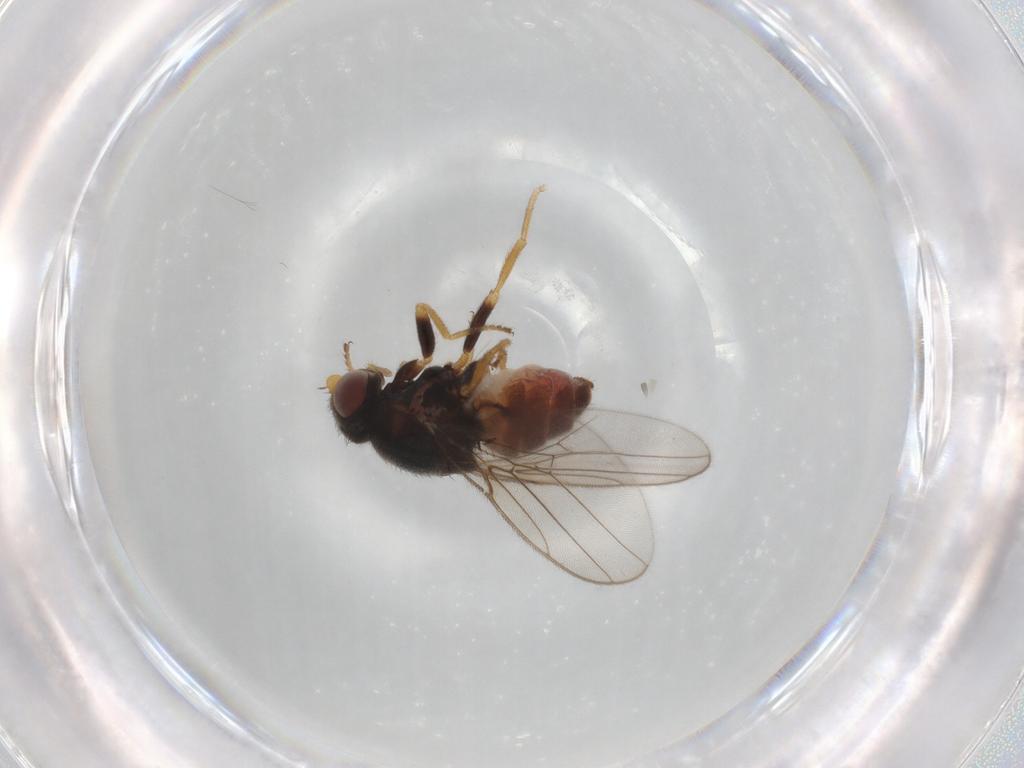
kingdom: Animalia
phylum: Arthropoda
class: Insecta
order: Diptera
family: Chloropidae
